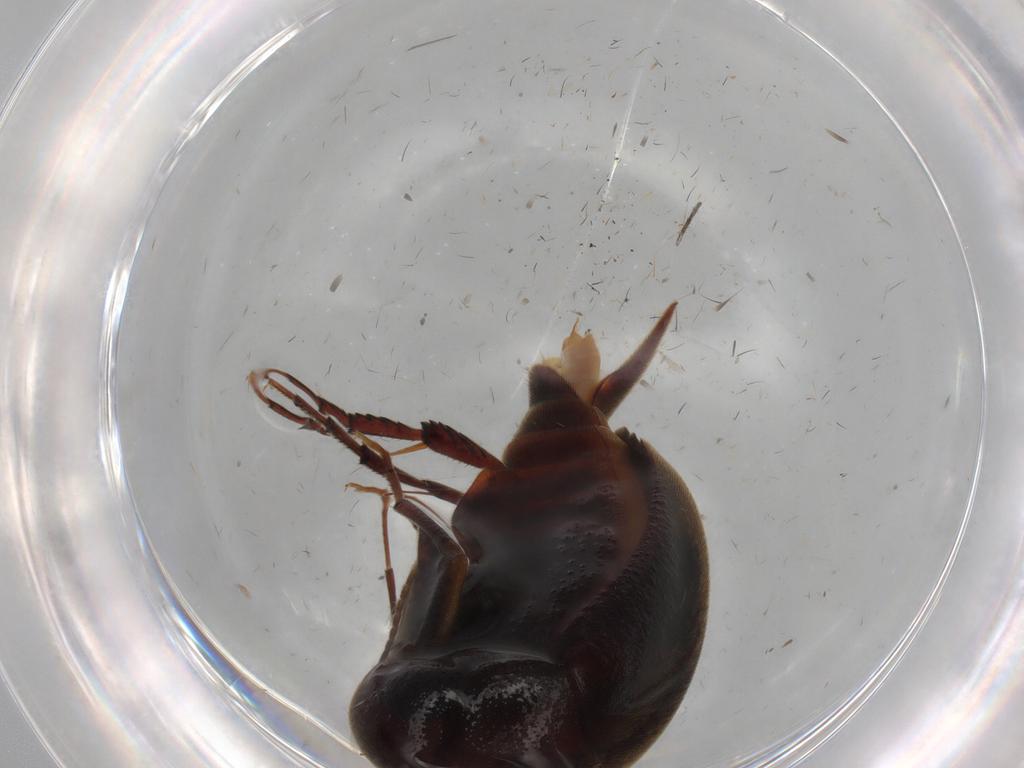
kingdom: Animalia
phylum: Arthropoda
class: Insecta
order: Coleoptera
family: Mordellidae
